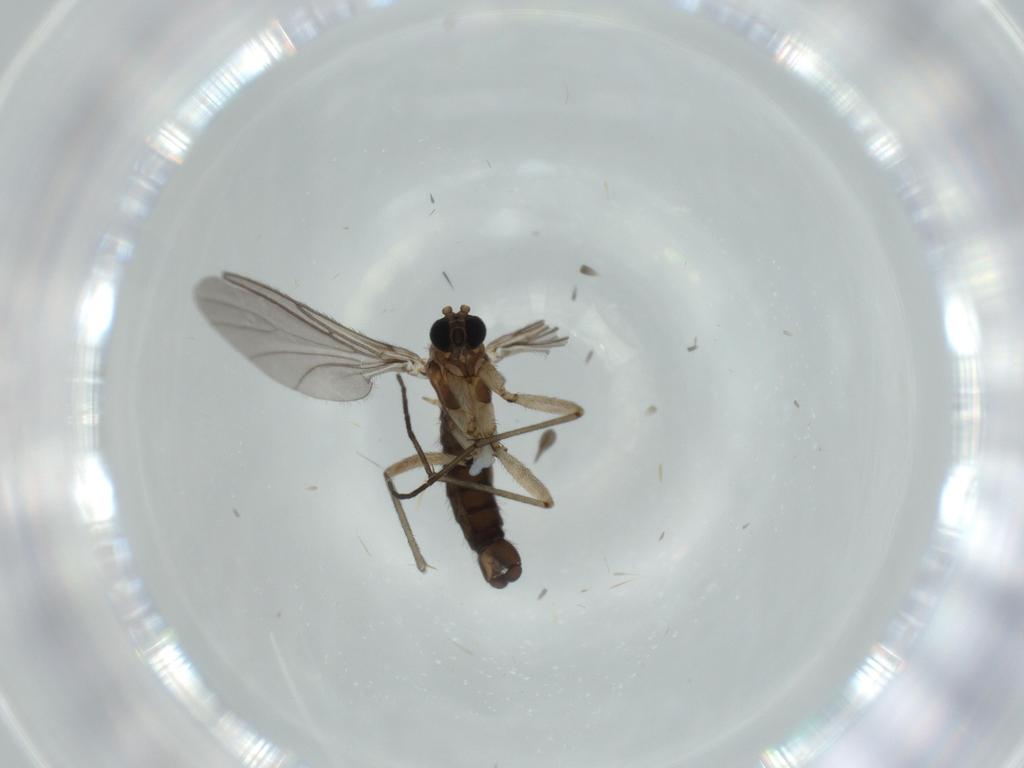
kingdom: Animalia
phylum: Arthropoda
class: Insecta
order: Diptera
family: Sciaridae
